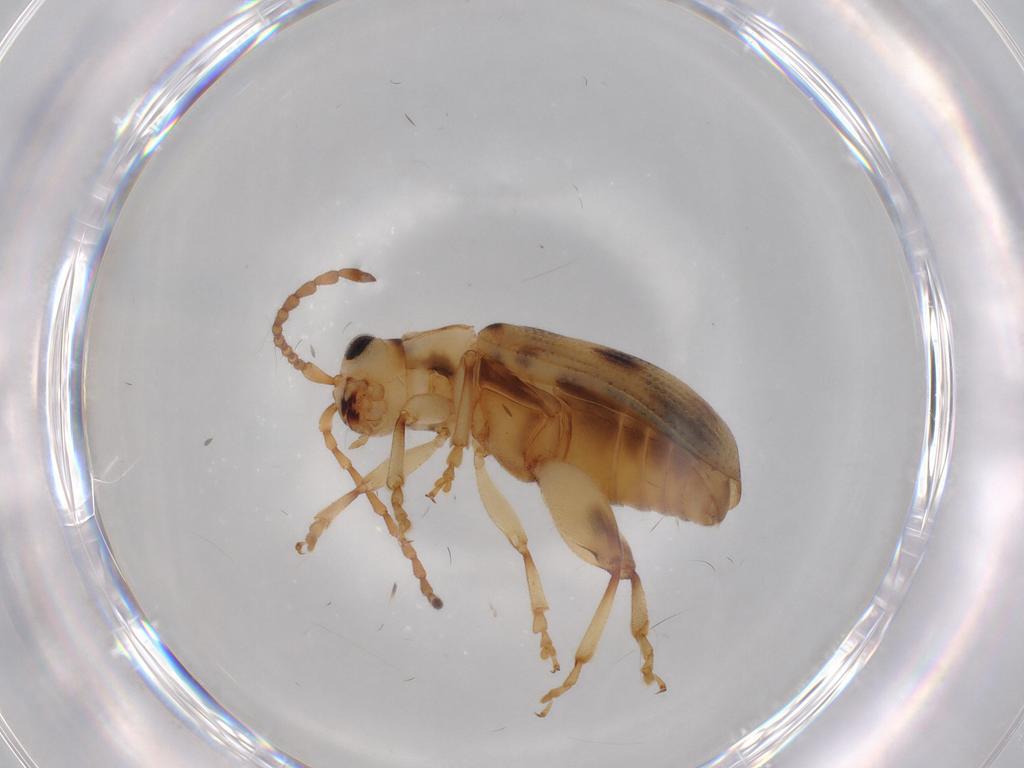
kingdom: Animalia
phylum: Arthropoda
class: Insecta
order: Coleoptera
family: Chrysomelidae
